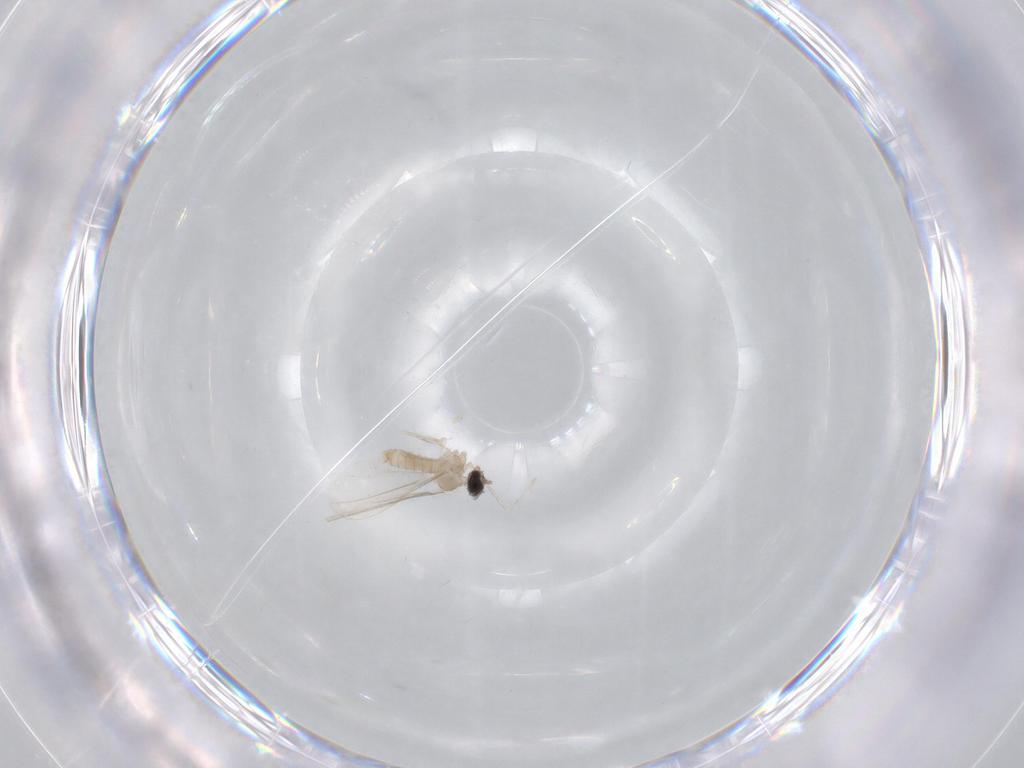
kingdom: Animalia
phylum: Arthropoda
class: Insecta
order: Diptera
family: Cecidomyiidae
